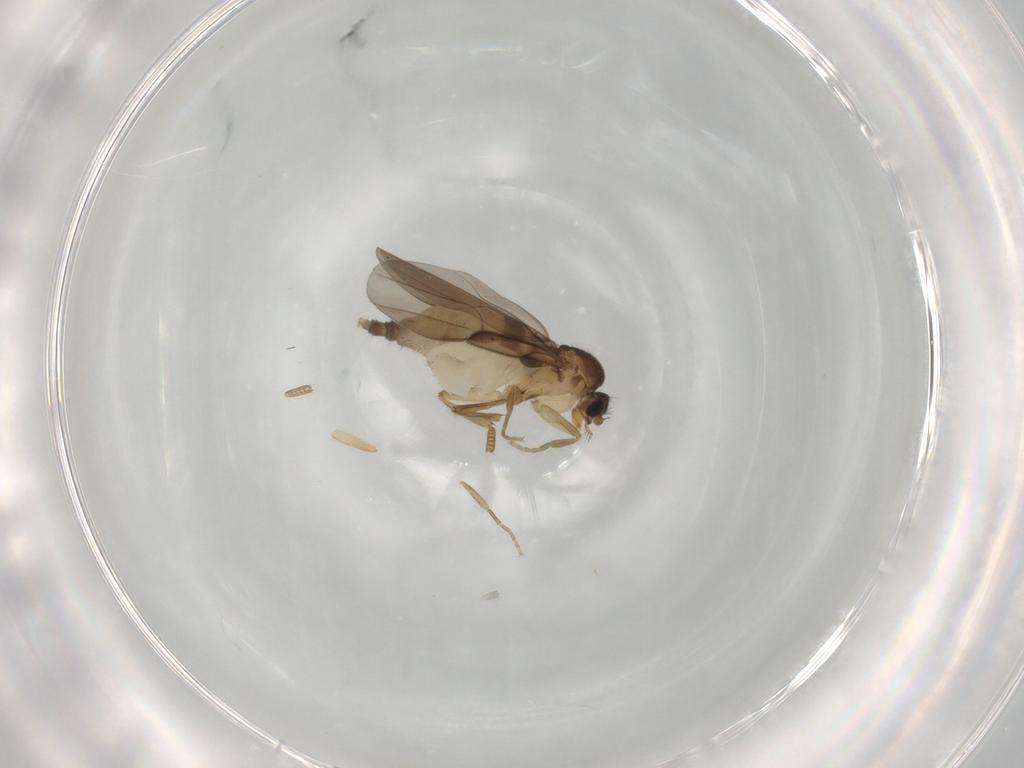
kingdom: Animalia
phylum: Arthropoda
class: Insecta
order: Diptera
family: Phoridae
